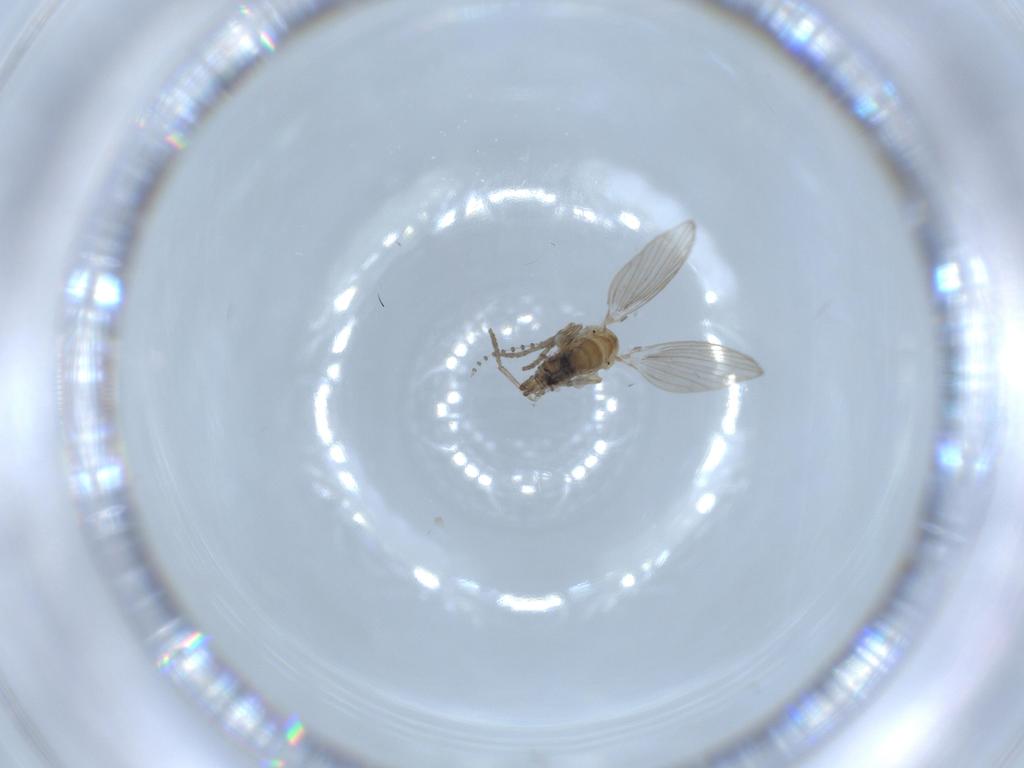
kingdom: Animalia
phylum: Arthropoda
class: Insecta
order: Diptera
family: Psychodidae
